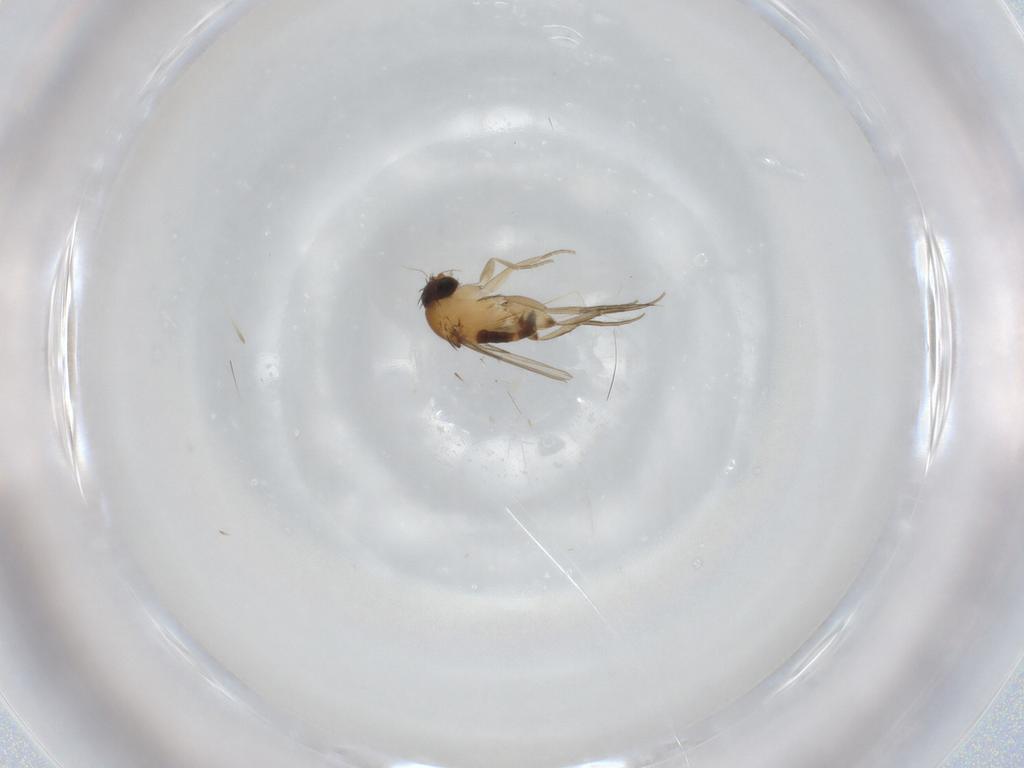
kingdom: Animalia
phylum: Arthropoda
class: Insecta
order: Diptera
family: Phoridae
